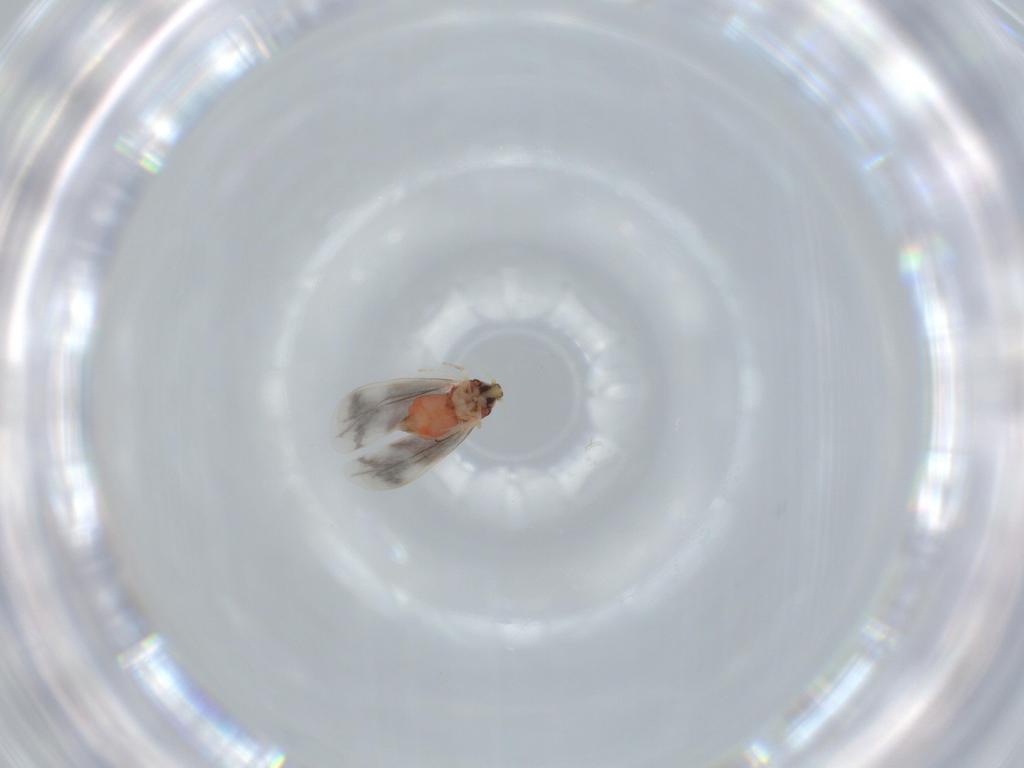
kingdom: Animalia
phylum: Arthropoda
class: Insecta
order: Hemiptera
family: Aleyrodidae
